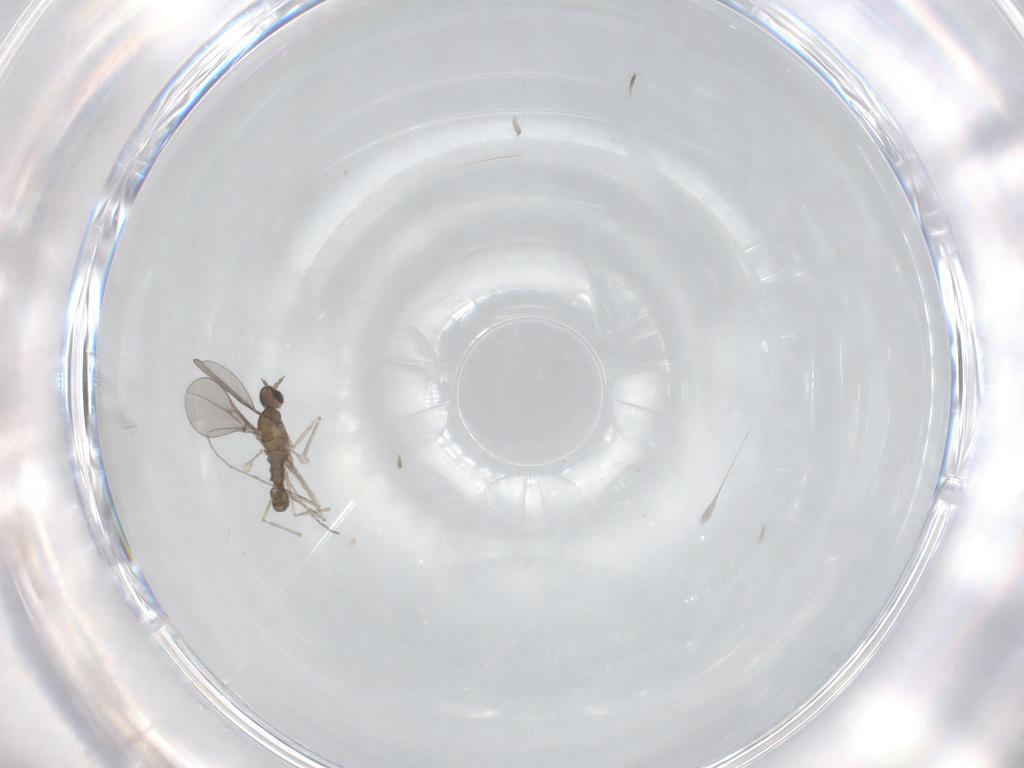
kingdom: Animalia
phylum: Arthropoda
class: Insecta
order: Diptera
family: Cecidomyiidae
